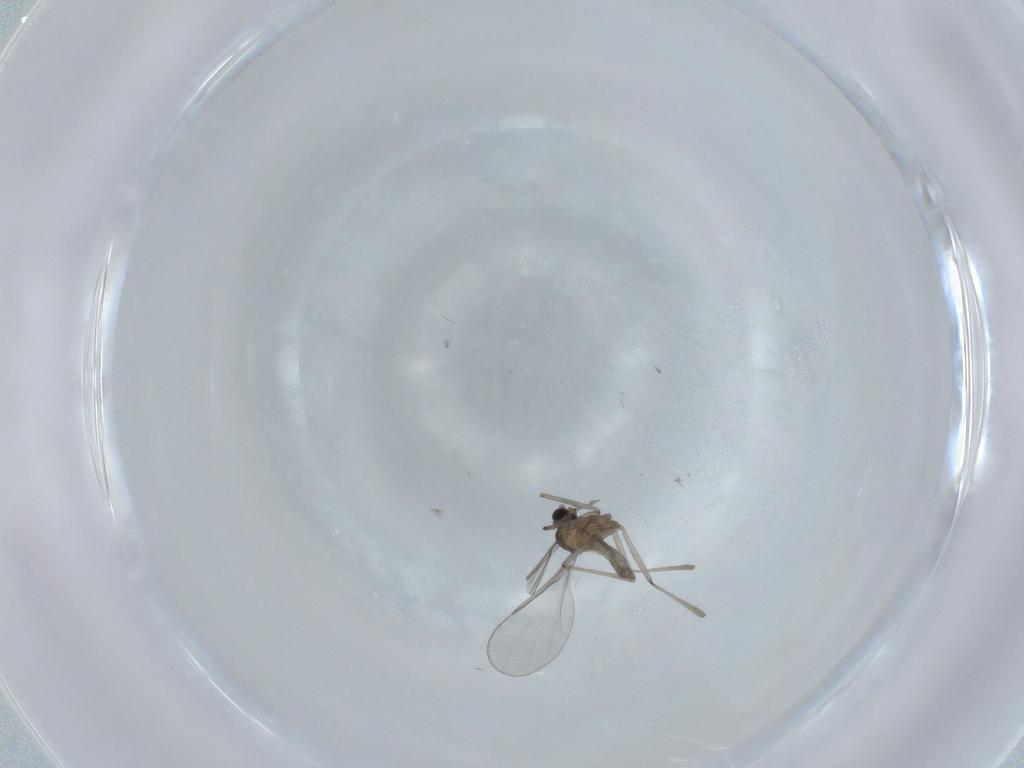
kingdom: Animalia
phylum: Arthropoda
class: Insecta
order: Diptera
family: Cecidomyiidae
